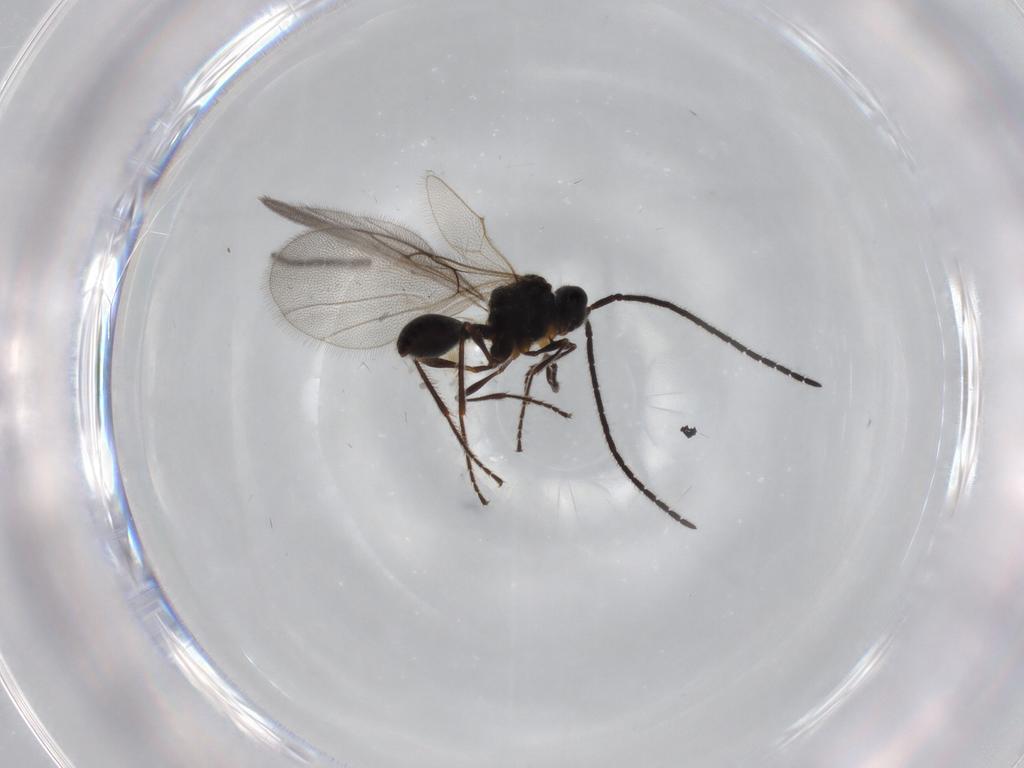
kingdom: Animalia
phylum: Arthropoda
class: Insecta
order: Hymenoptera
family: Diapriidae
